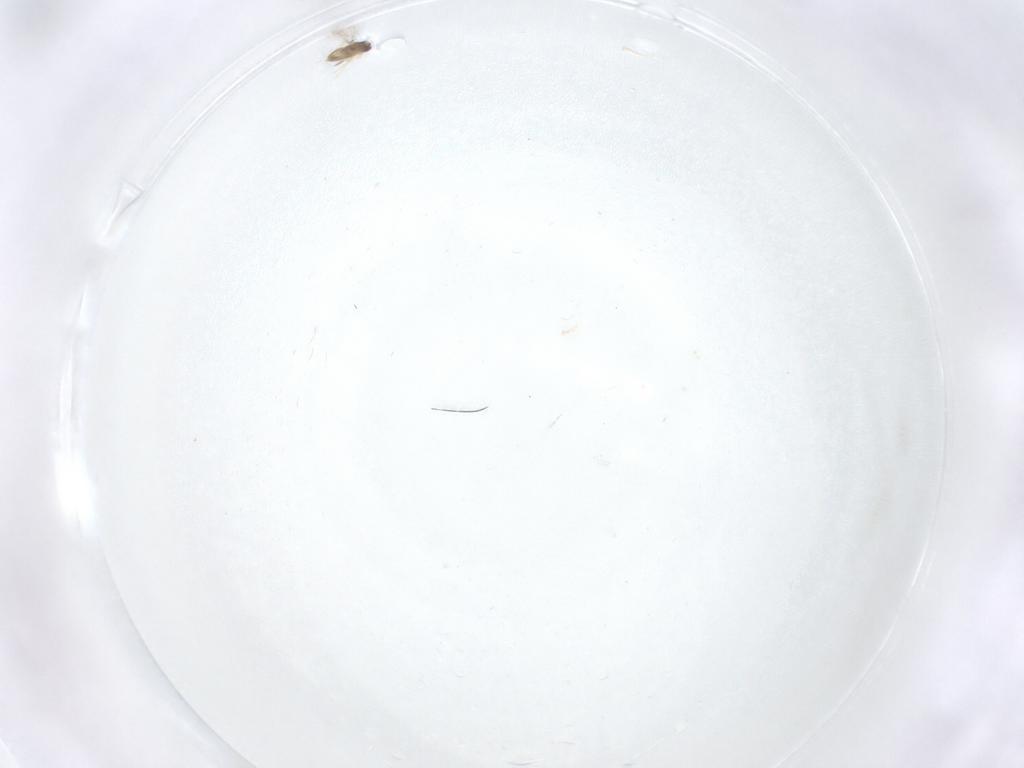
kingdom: Animalia
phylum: Arthropoda
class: Insecta
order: Hymenoptera
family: Mymaridae
